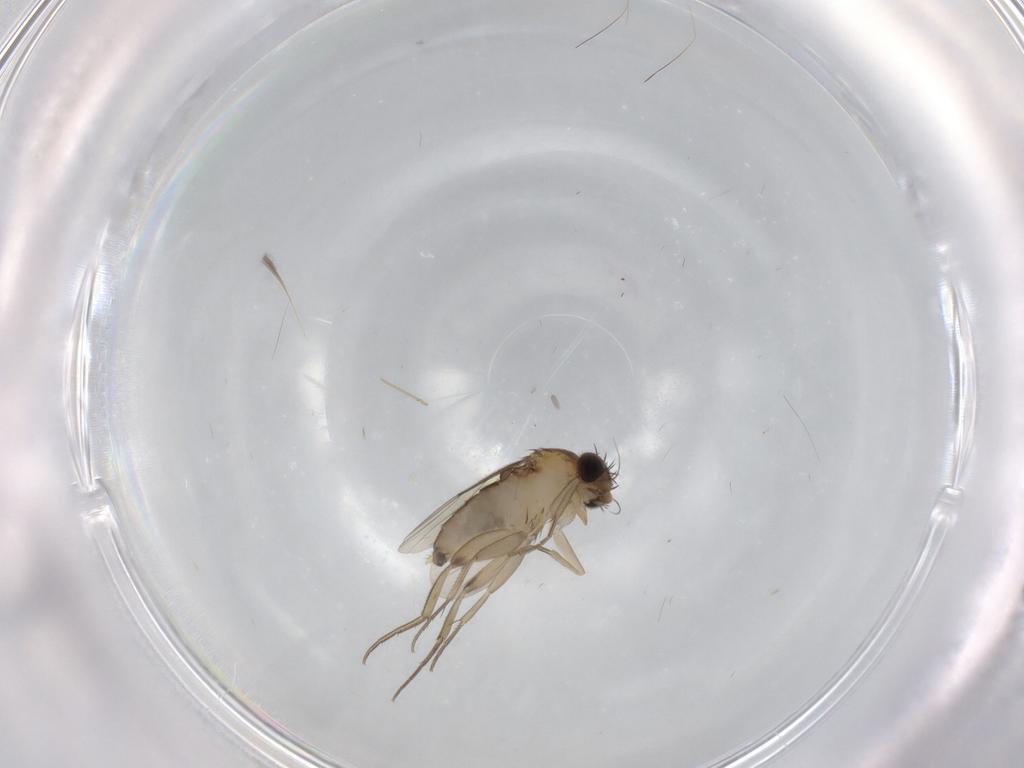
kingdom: Animalia
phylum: Arthropoda
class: Insecta
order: Diptera
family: Phoridae
